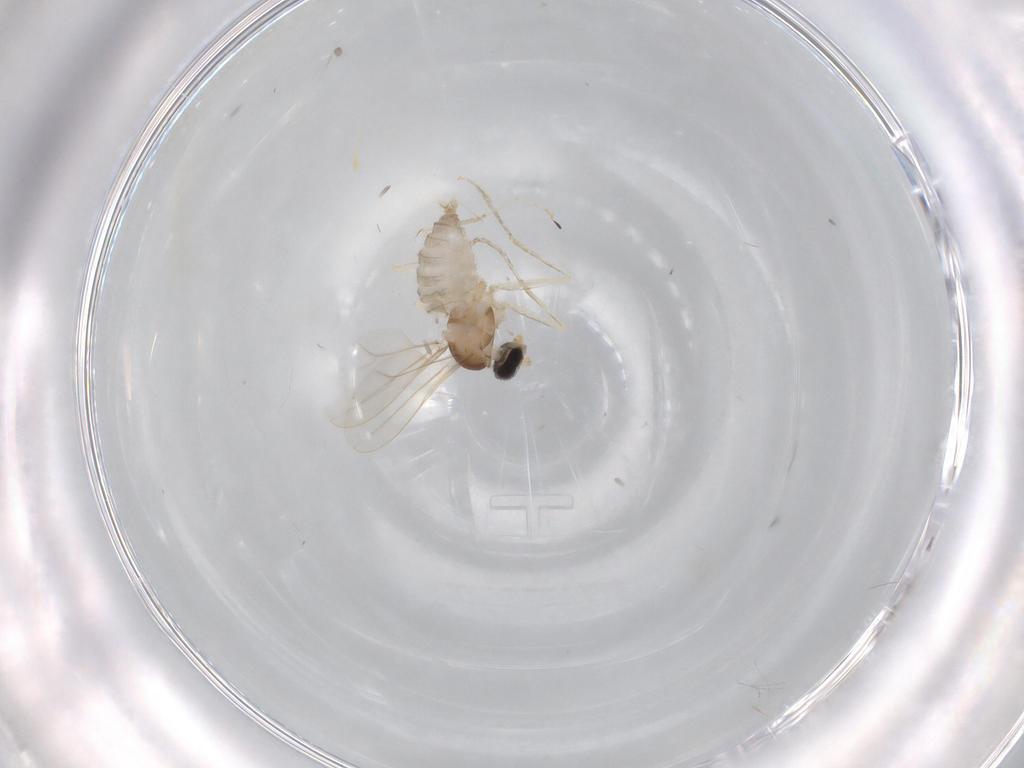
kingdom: Animalia
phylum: Arthropoda
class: Insecta
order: Diptera
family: Cecidomyiidae
